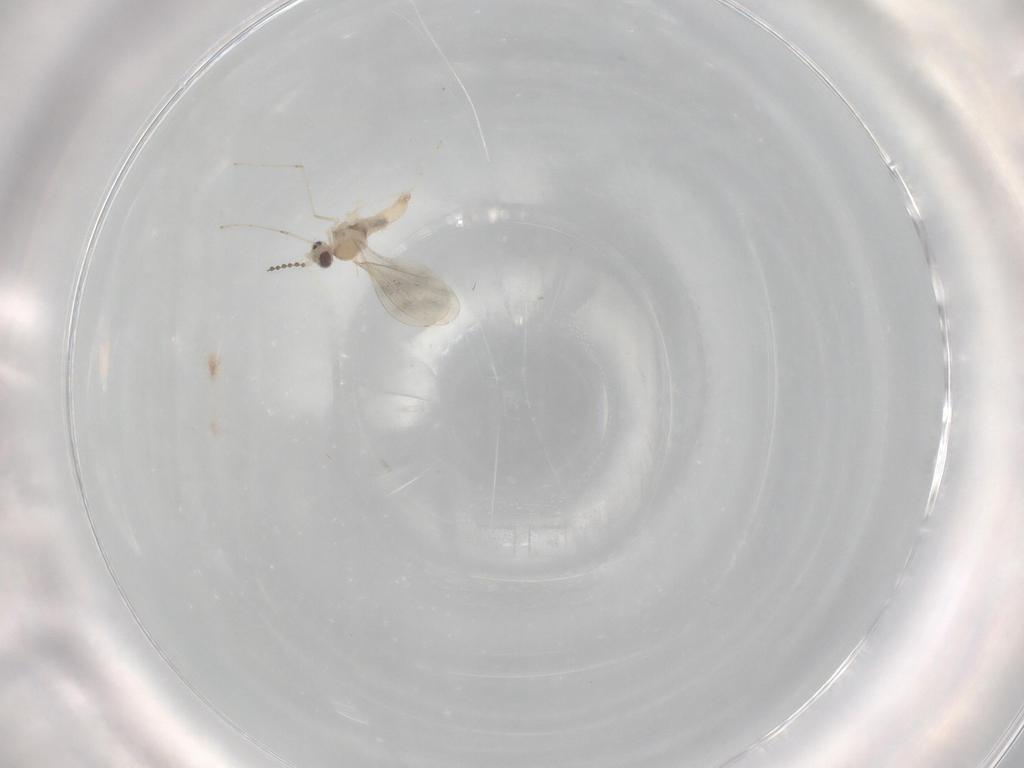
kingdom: Animalia
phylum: Arthropoda
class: Insecta
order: Diptera
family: Cecidomyiidae
